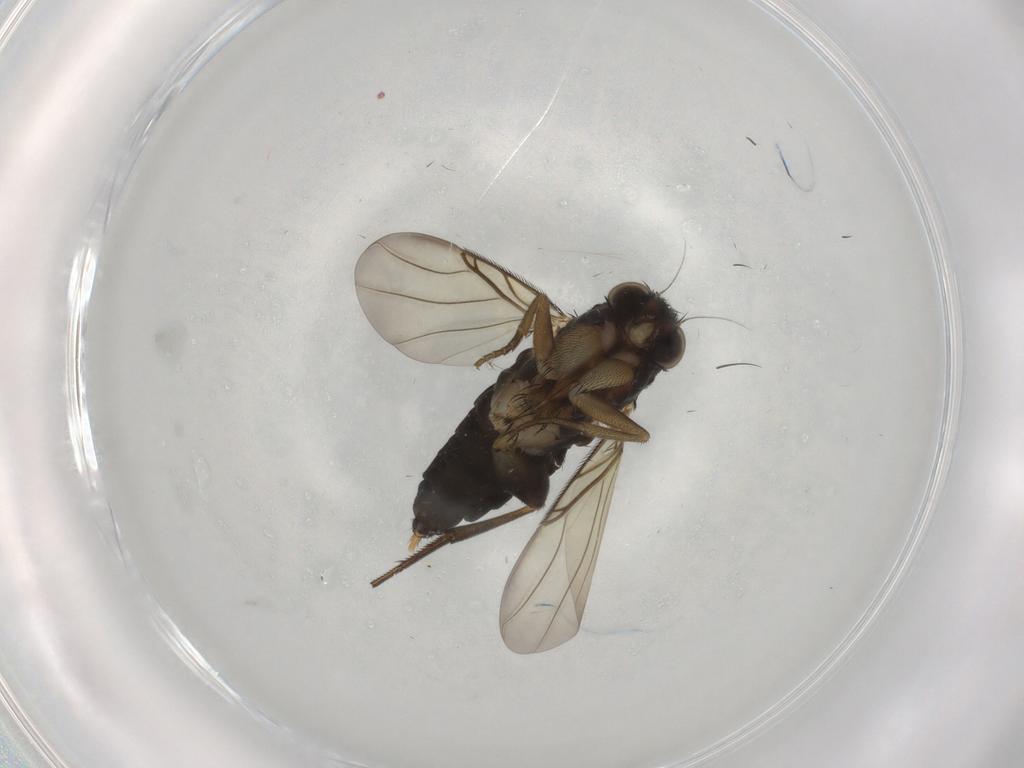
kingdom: Animalia
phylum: Arthropoda
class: Insecta
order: Diptera
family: Phoridae
